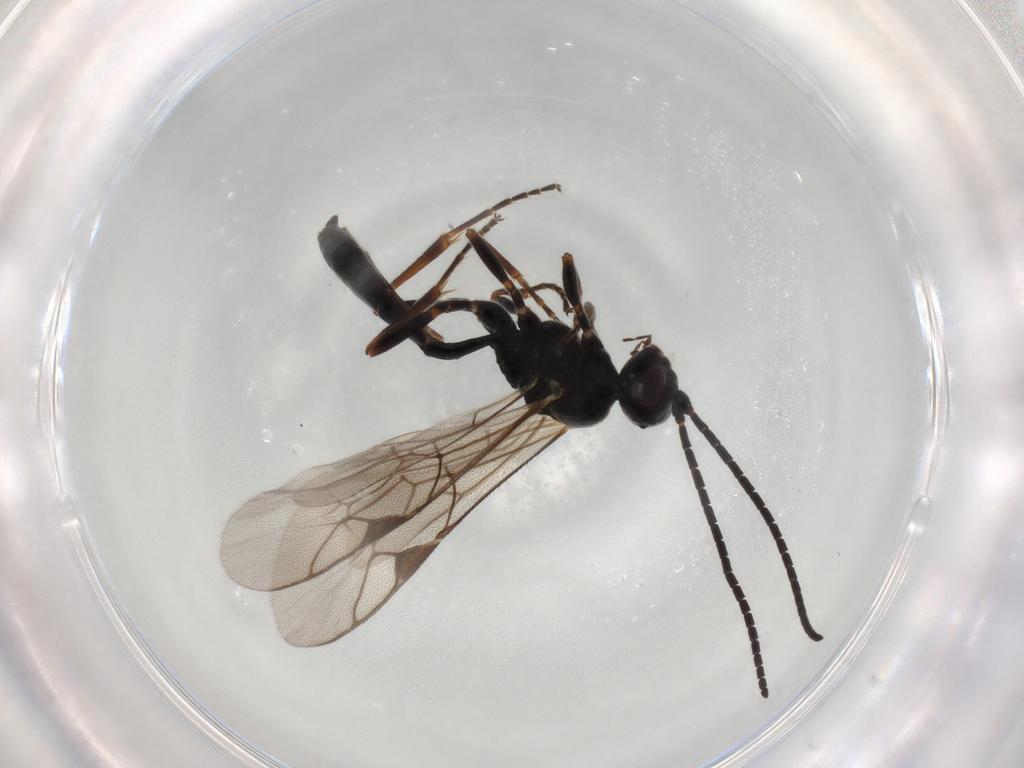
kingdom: Animalia
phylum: Arthropoda
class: Insecta
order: Hymenoptera
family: Ichneumonidae
